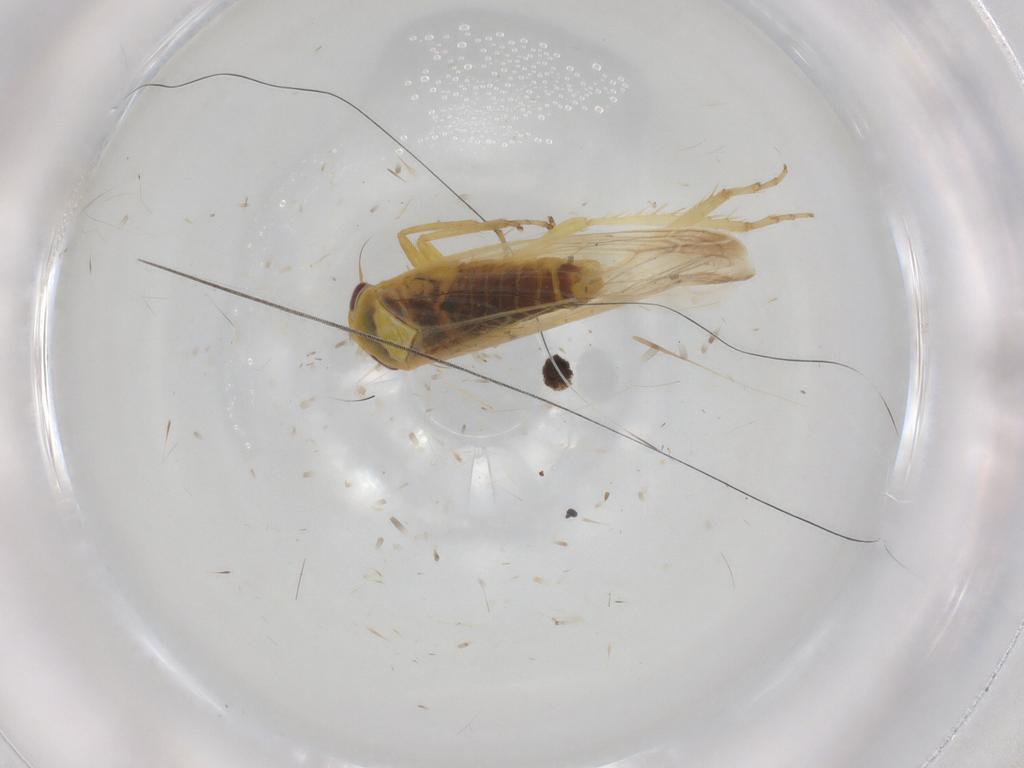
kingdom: Animalia
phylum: Arthropoda
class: Insecta
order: Hemiptera
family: Cicadellidae
